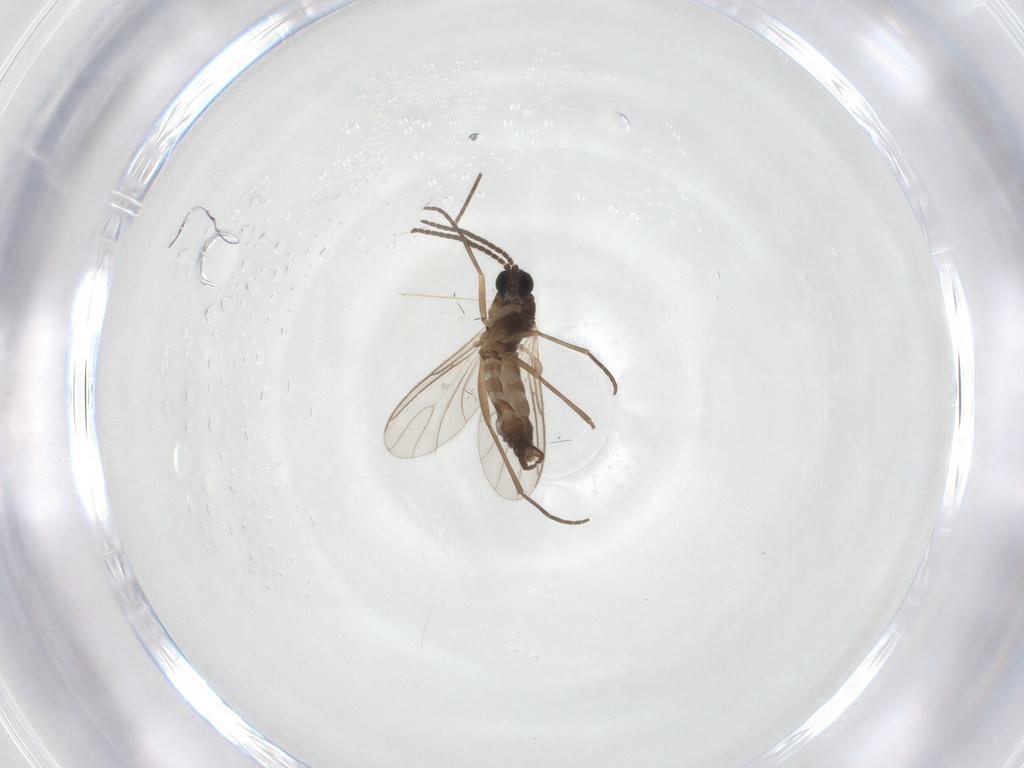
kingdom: Animalia
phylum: Arthropoda
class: Insecta
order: Diptera
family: Sciaridae
